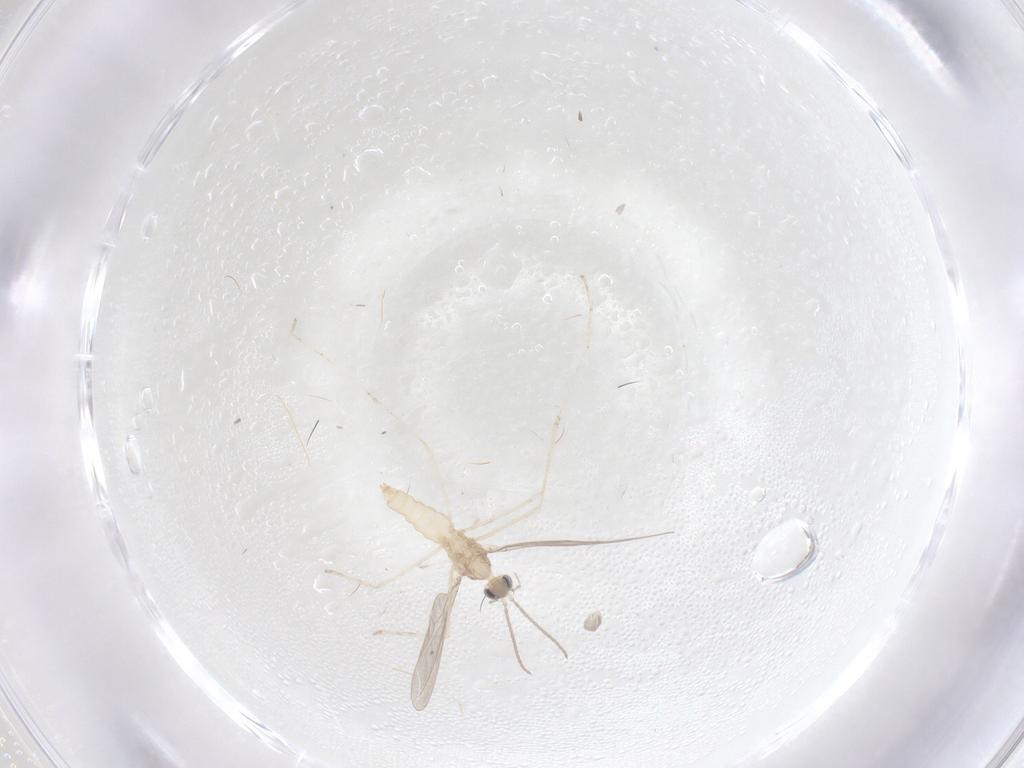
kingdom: Animalia
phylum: Arthropoda
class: Insecta
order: Diptera
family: Cecidomyiidae
